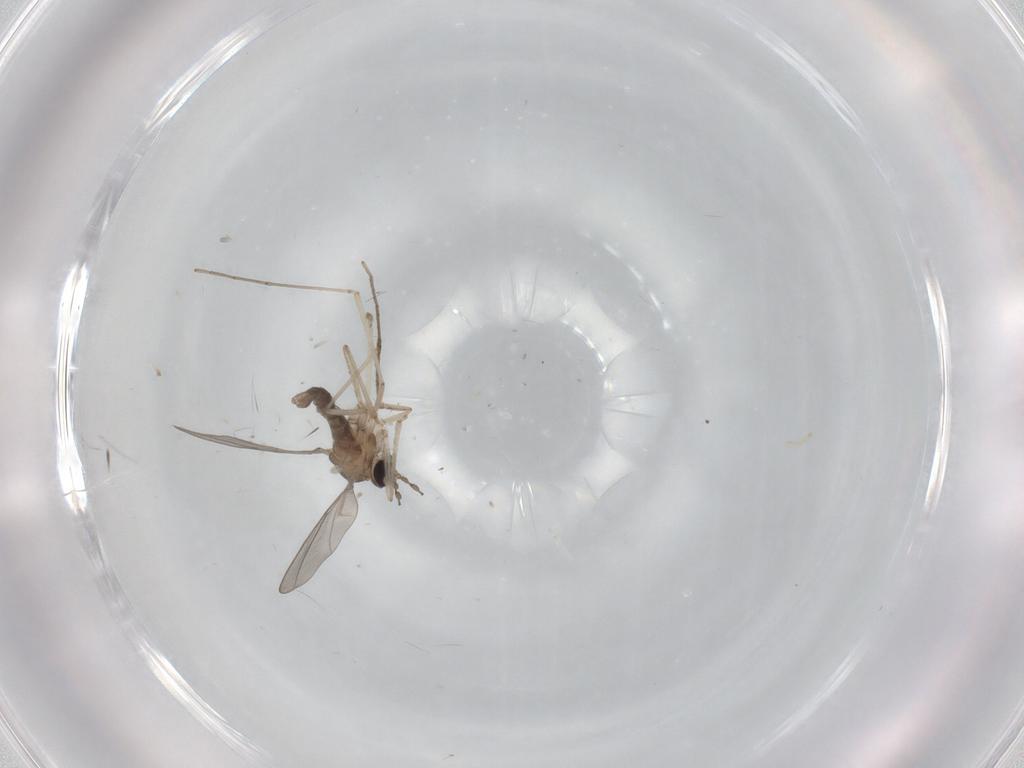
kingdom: Animalia
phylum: Arthropoda
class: Insecta
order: Diptera
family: Cecidomyiidae
